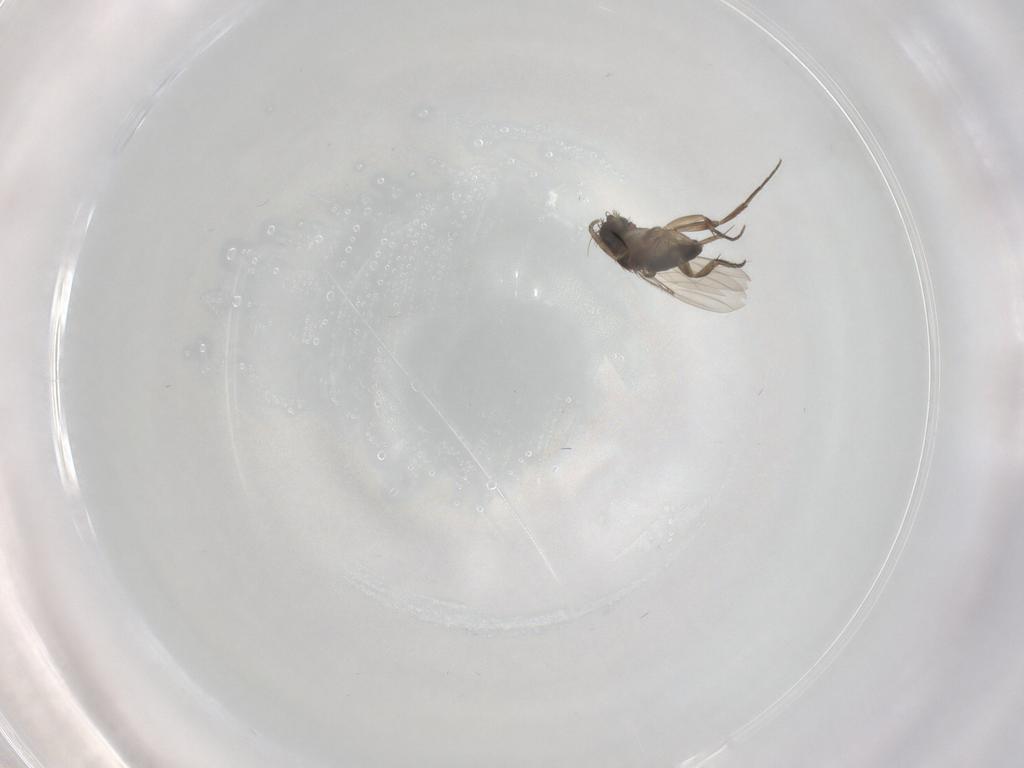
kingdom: Animalia
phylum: Arthropoda
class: Insecta
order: Diptera
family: Phoridae
